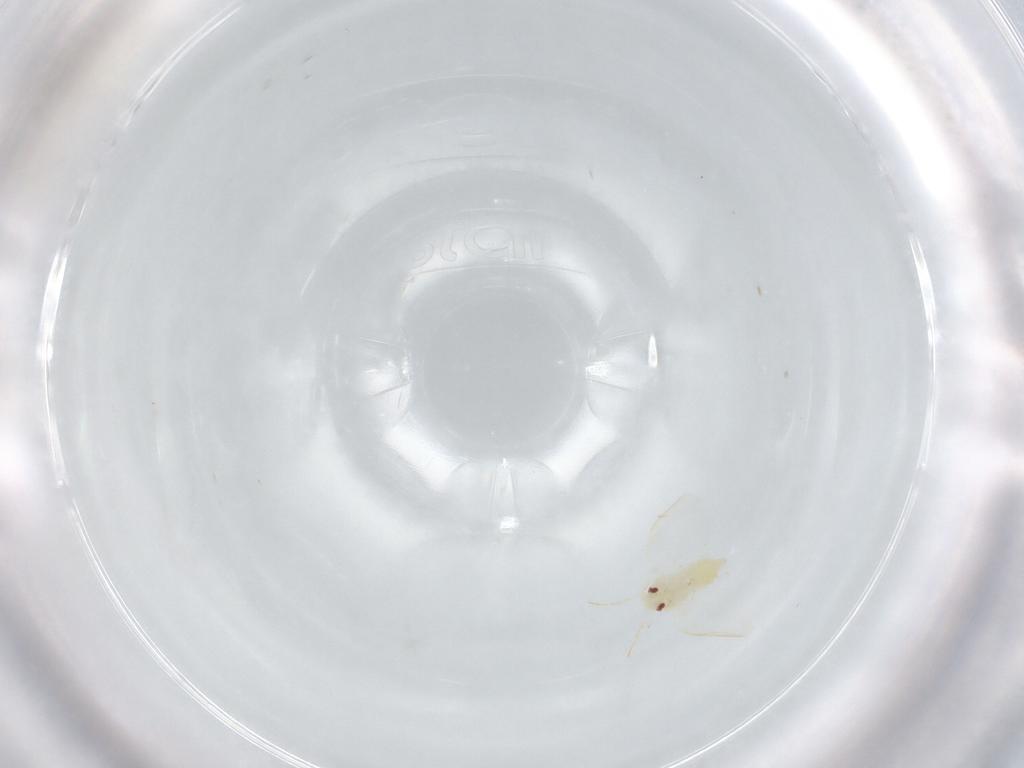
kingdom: Animalia
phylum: Arthropoda
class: Insecta
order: Hemiptera
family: Aleyrodidae
